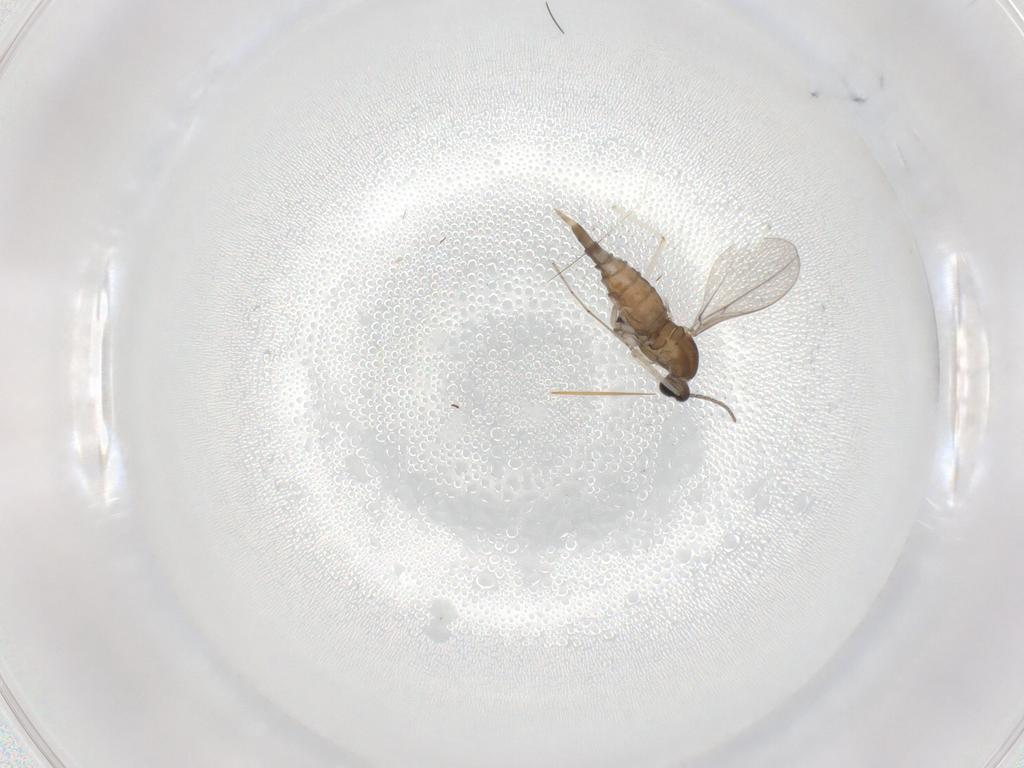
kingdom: Animalia
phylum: Arthropoda
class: Insecta
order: Diptera
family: Cecidomyiidae
